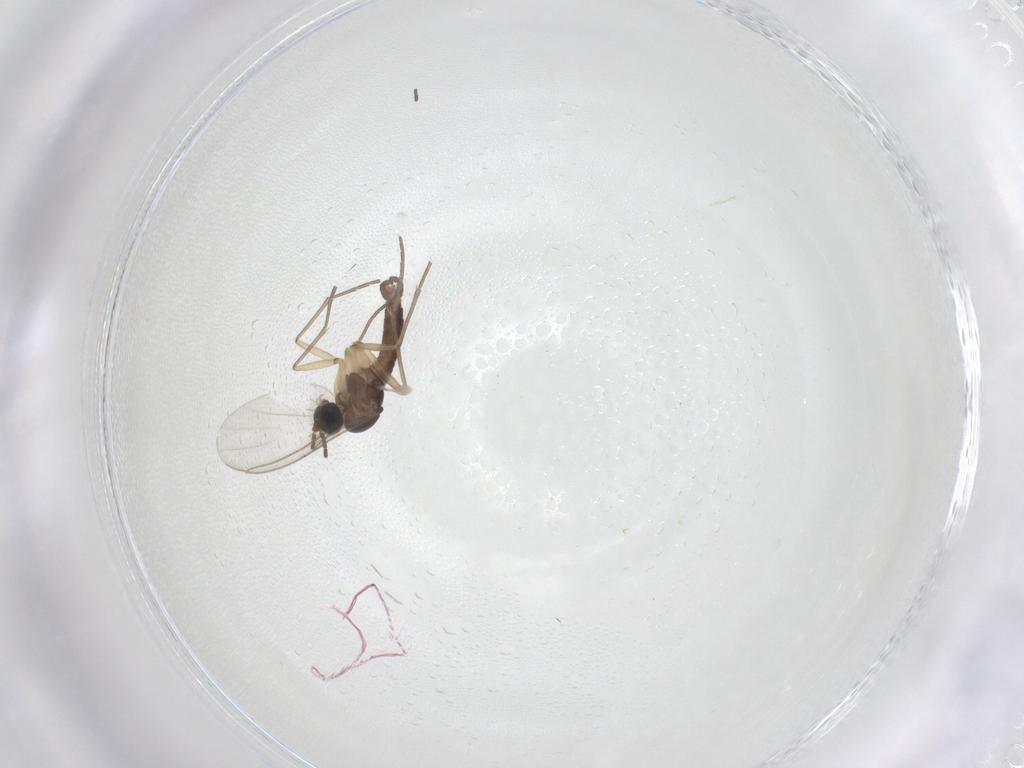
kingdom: Animalia
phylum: Arthropoda
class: Insecta
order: Diptera
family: Sciaridae
